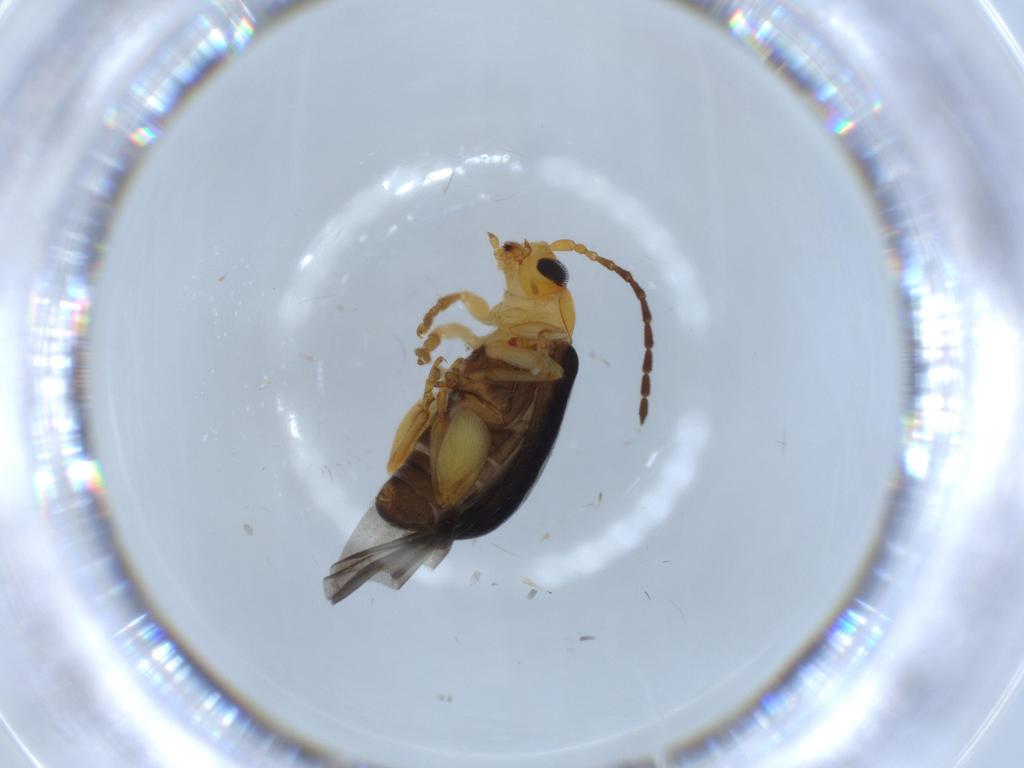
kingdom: Animalia
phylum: Arthropoda
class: Insecta
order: Coleoptera
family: Chrysomelidae
